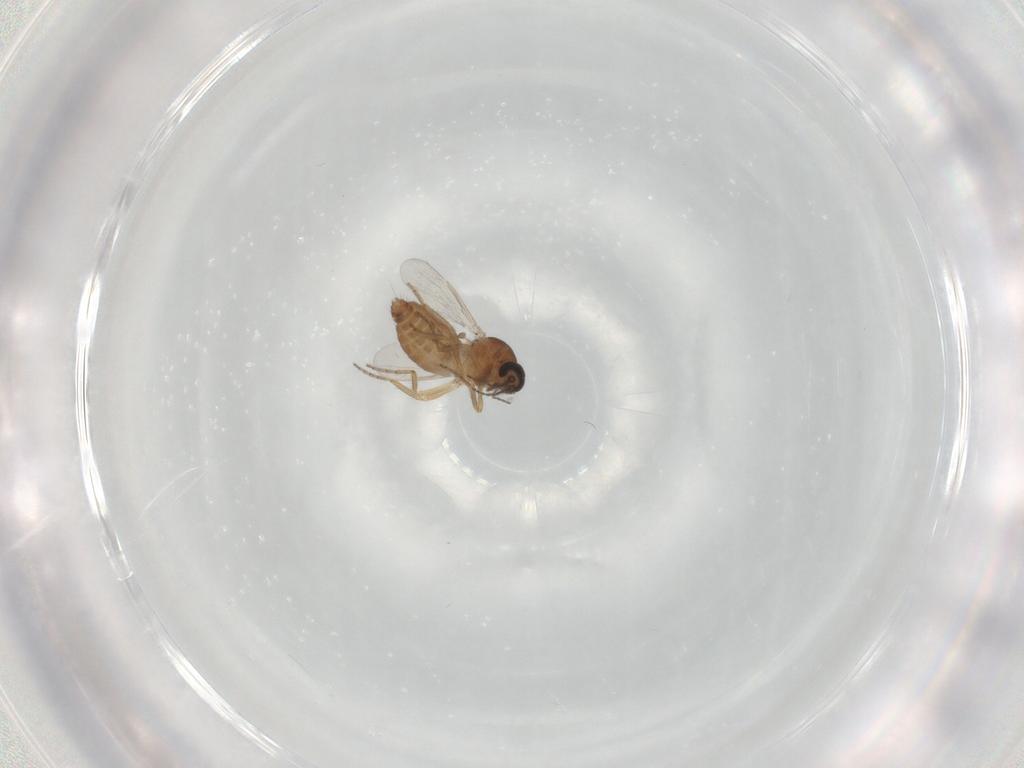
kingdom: Animalia
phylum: Arthropoda
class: Insecta
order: Diptera
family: Ceratopogonidae
